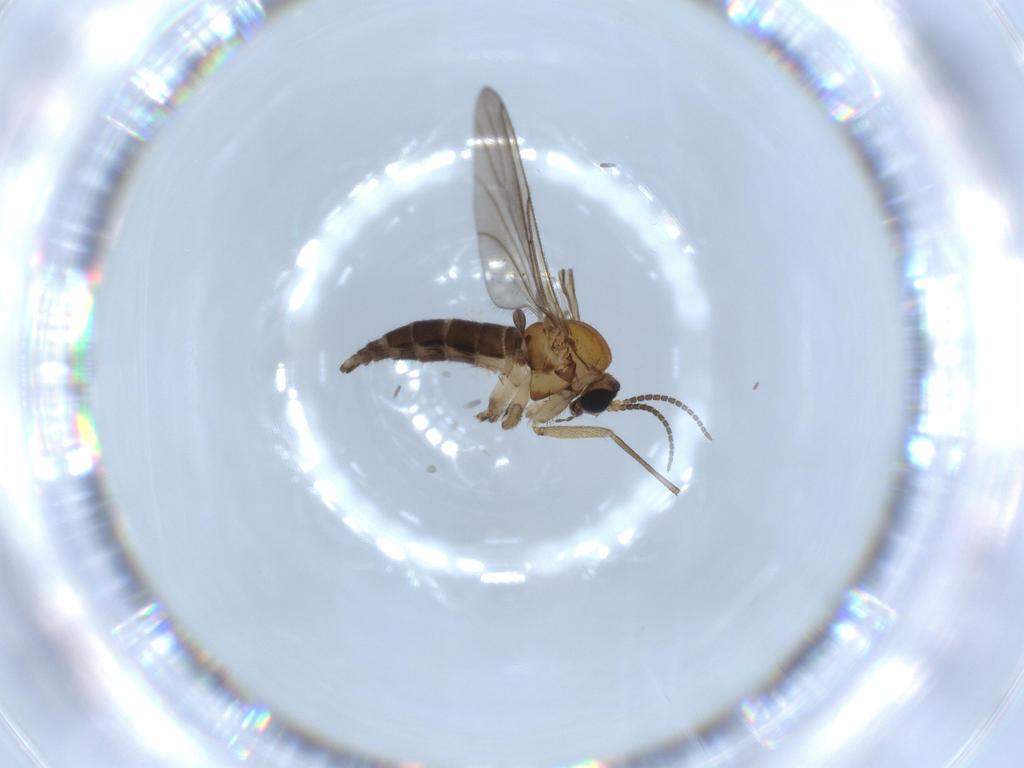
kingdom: Animalia
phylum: Arthropoda
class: Insecta
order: Diptera
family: Sciaridae
